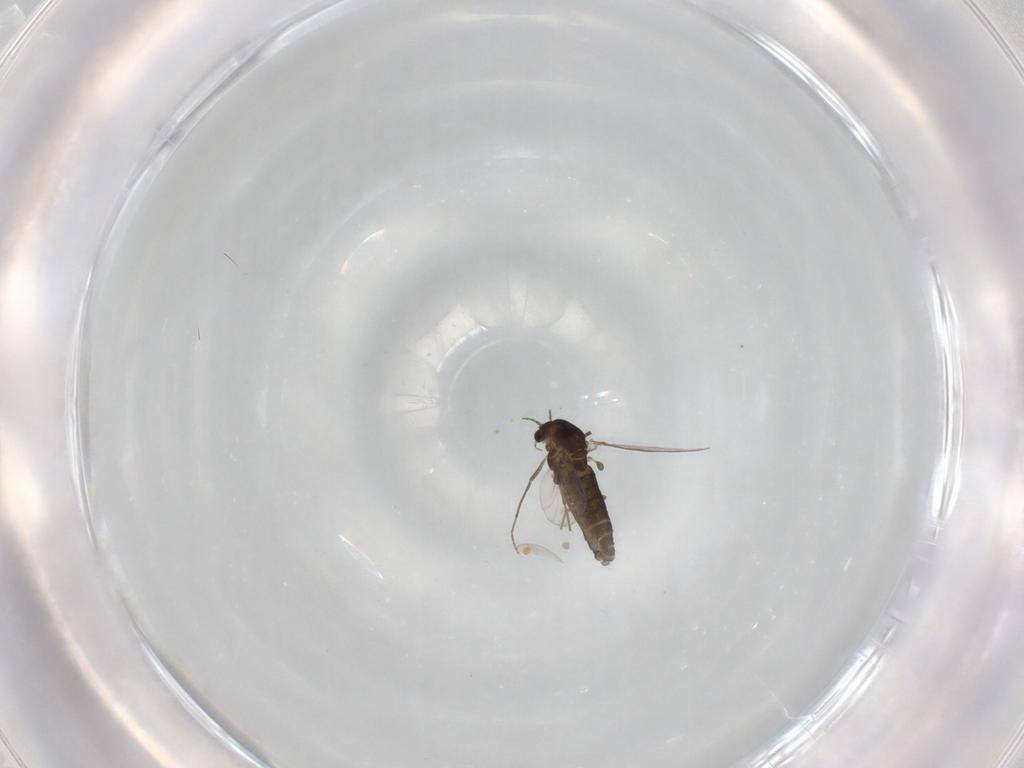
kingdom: Animalia
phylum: Arthropoda
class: Insecta
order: Diptera
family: Chironomidae
